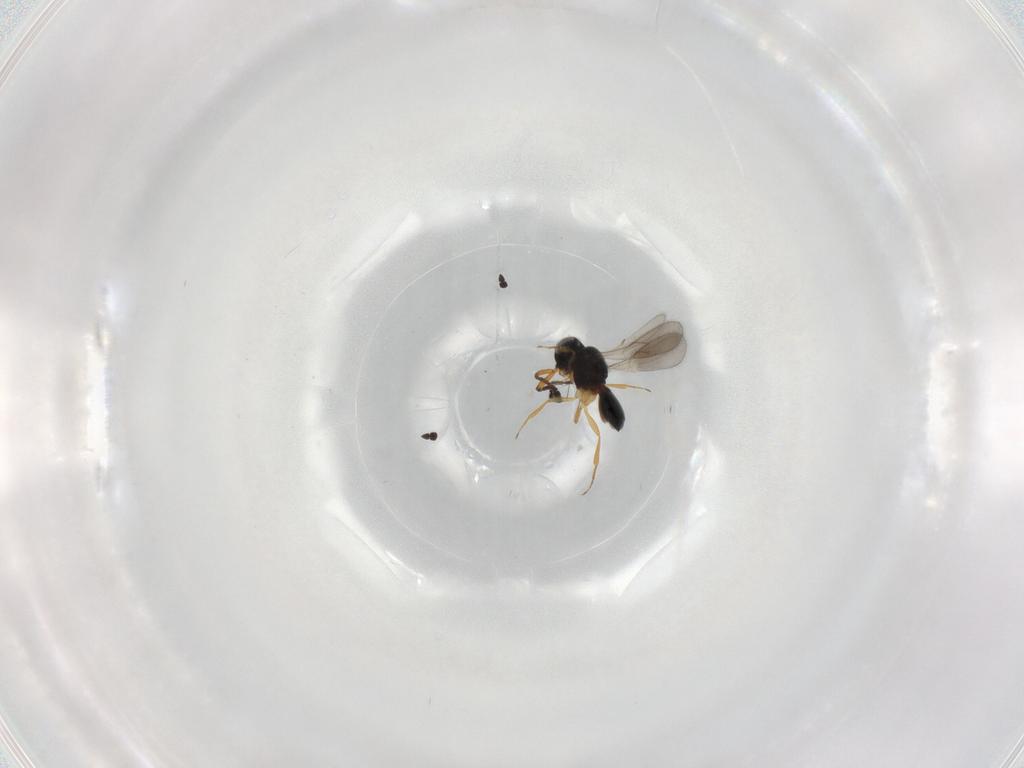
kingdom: Animalia
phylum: Arthropoda
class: Insecta
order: Hymenoptera
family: Scelionidae
